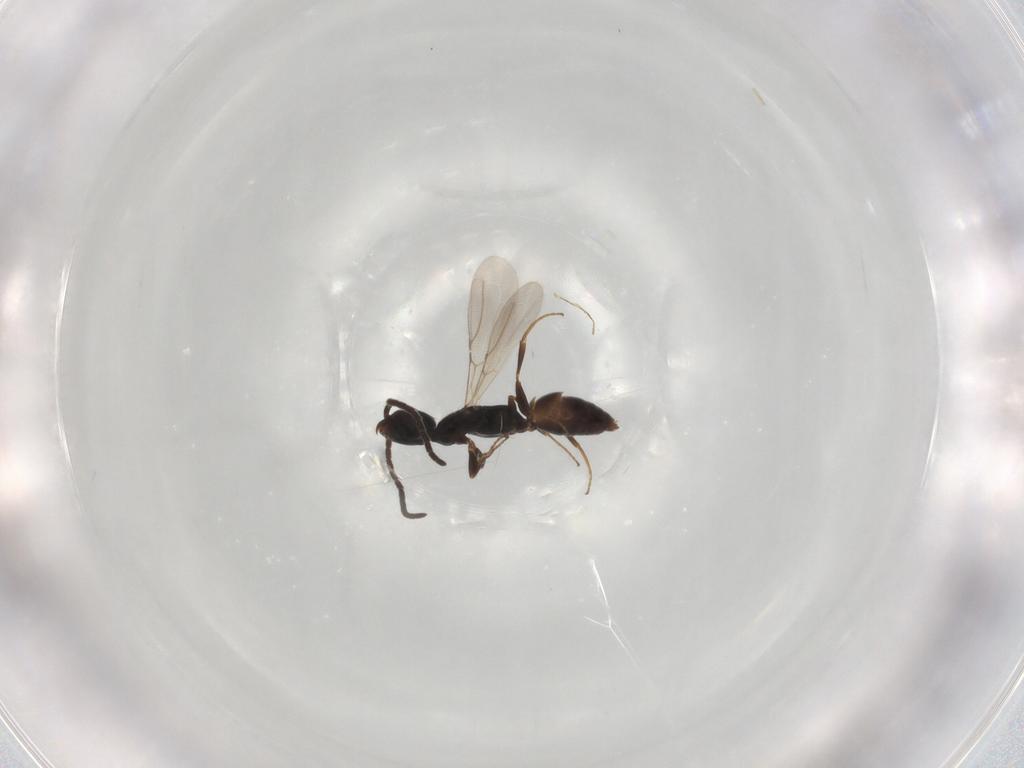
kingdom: Animalia
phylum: Arthropoda
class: Insecta
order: Hymenoptera
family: Bethylidae
